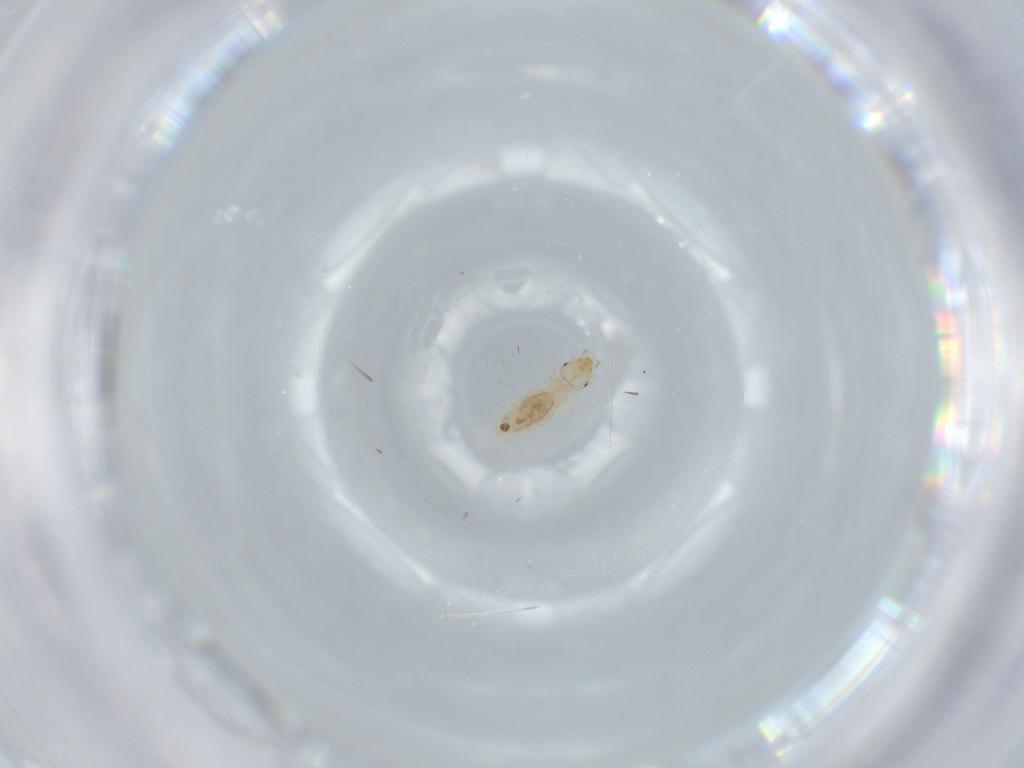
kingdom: Animalia
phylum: Arthropoda
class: Insecta
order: Psocodea
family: Liposcelididae
